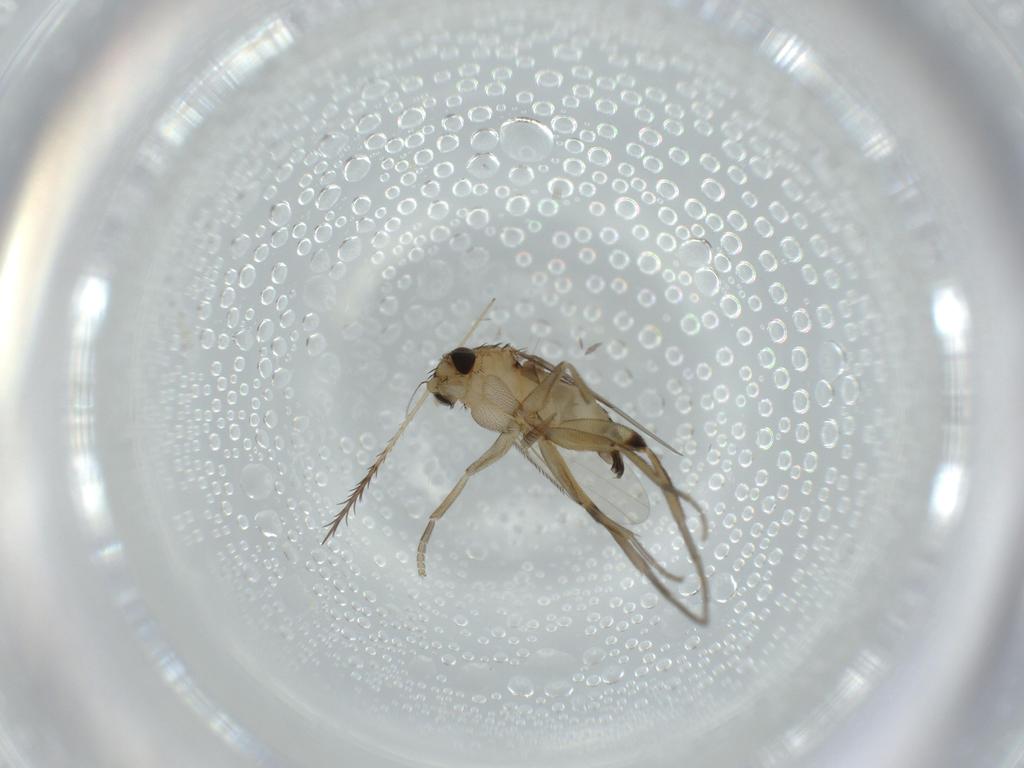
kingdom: Animalia
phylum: Arthropoda
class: Insecta
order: Diptera
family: Phoridae
